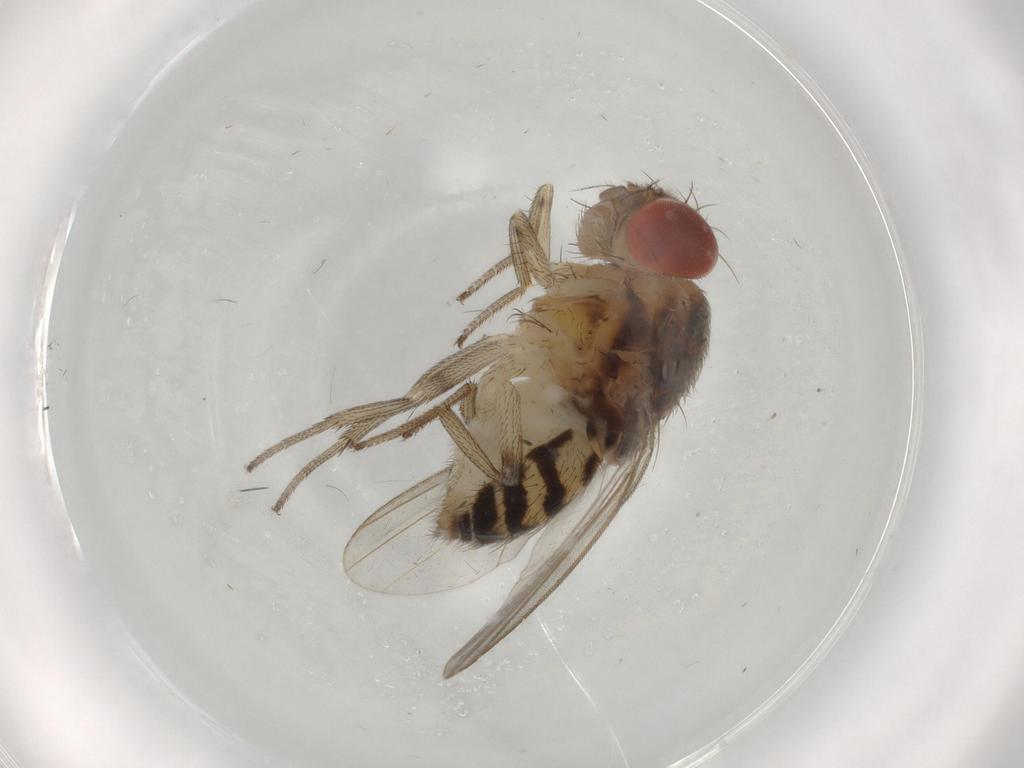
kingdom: Animalia
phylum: Arthropoda
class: Insecta
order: Diptera
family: Drosophilidae
